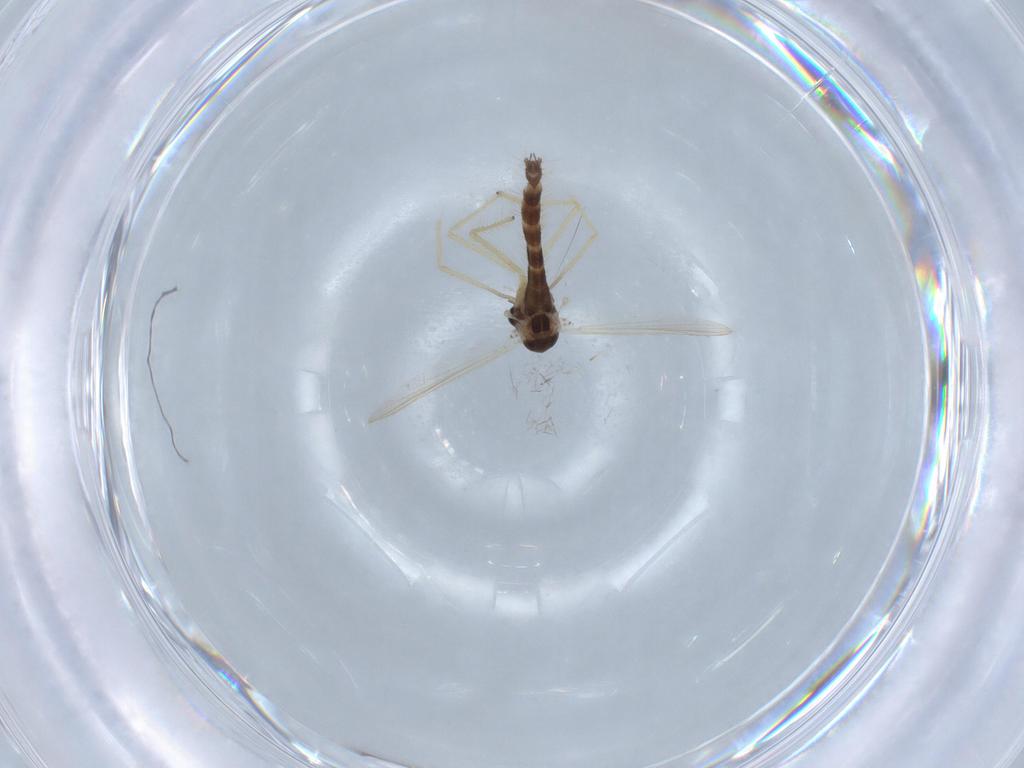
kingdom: Animalia
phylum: Arthropoda
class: Insecta
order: Diptera
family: Chironomidae
